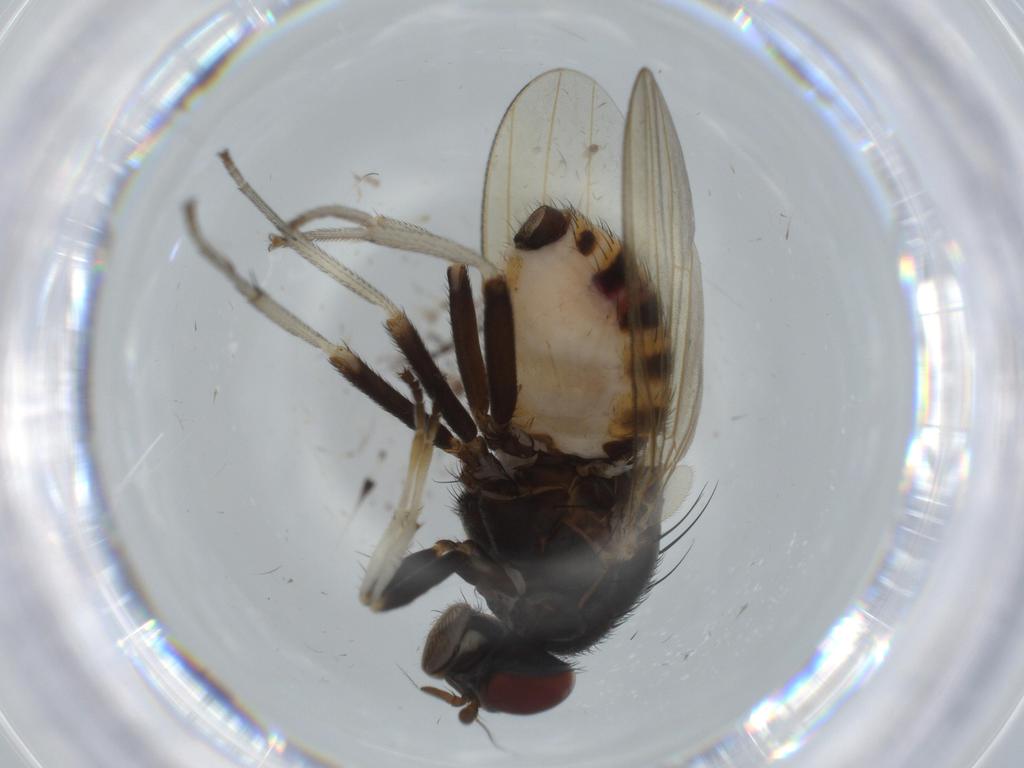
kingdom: Animalia
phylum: Arthropoda
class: Insecta
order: Diptera
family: Sciaridae
